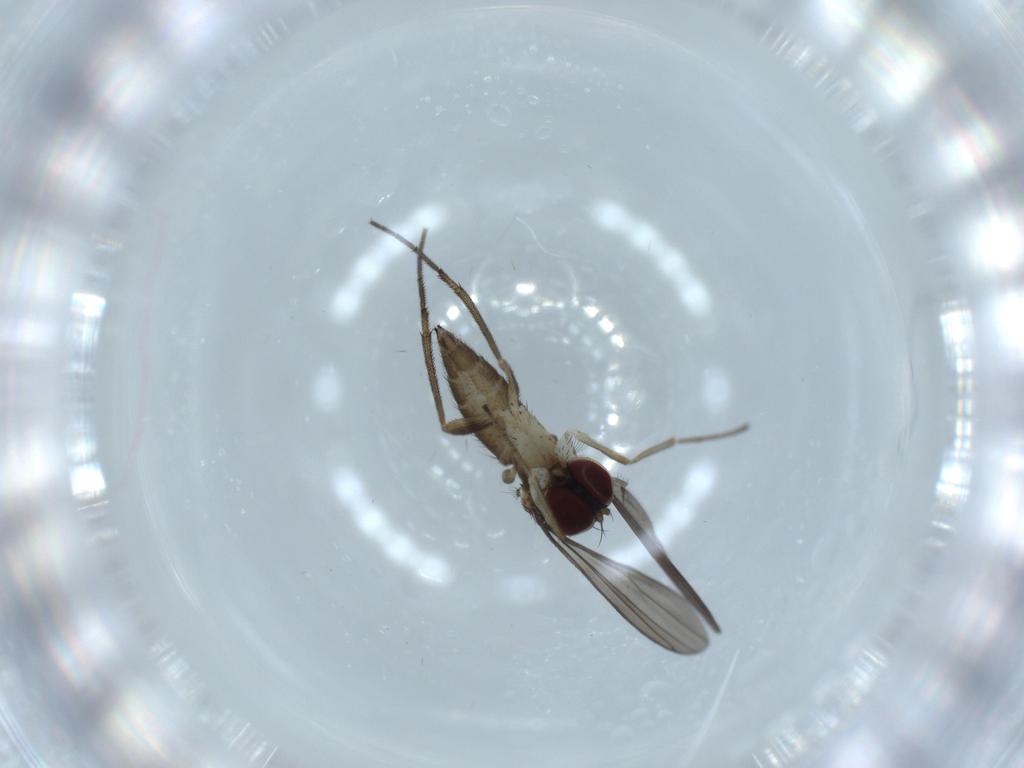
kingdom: Animalia
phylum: Arthropoda
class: Insecta
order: Diptera
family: Dolichopodidae
